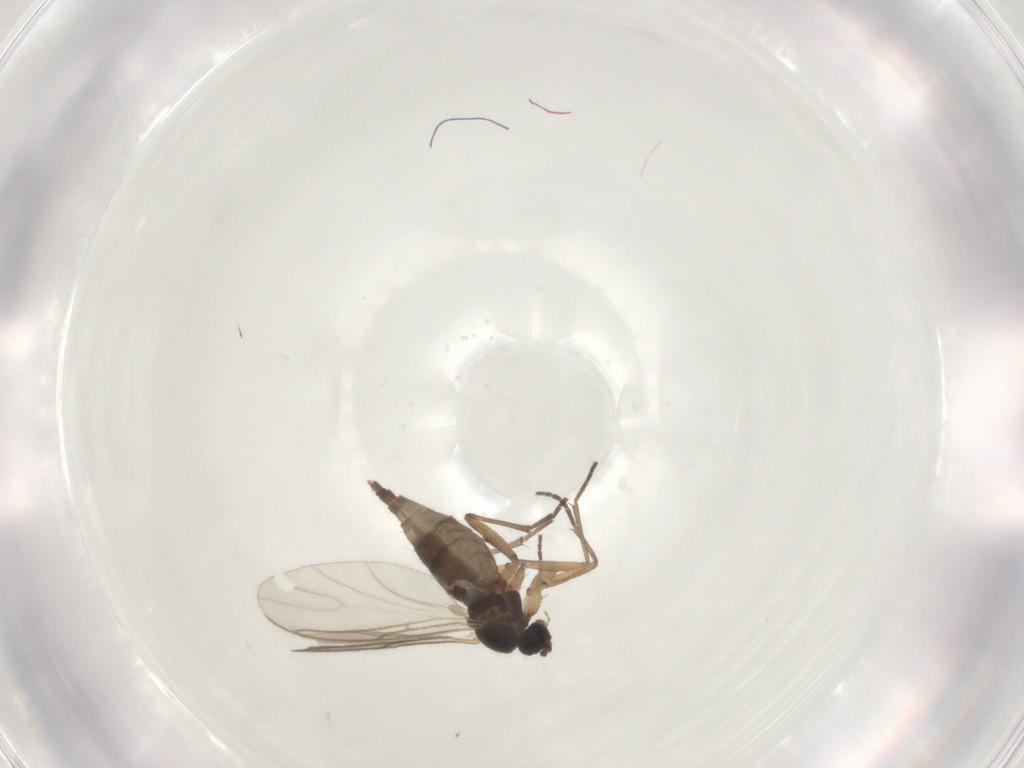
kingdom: Animalia
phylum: Arthropoda
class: Insecta
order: Diptera
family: Sciaridae
